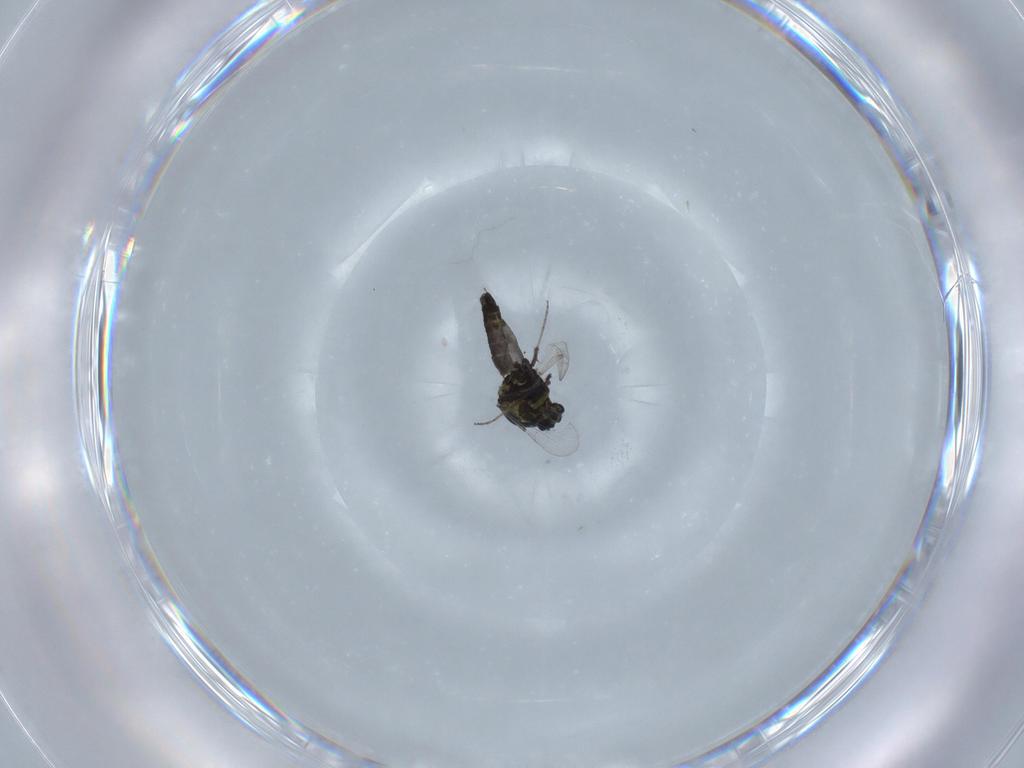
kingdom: Animalia
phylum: Arthropoda
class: Insecta
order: Diptera
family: Ceratopogonidae
